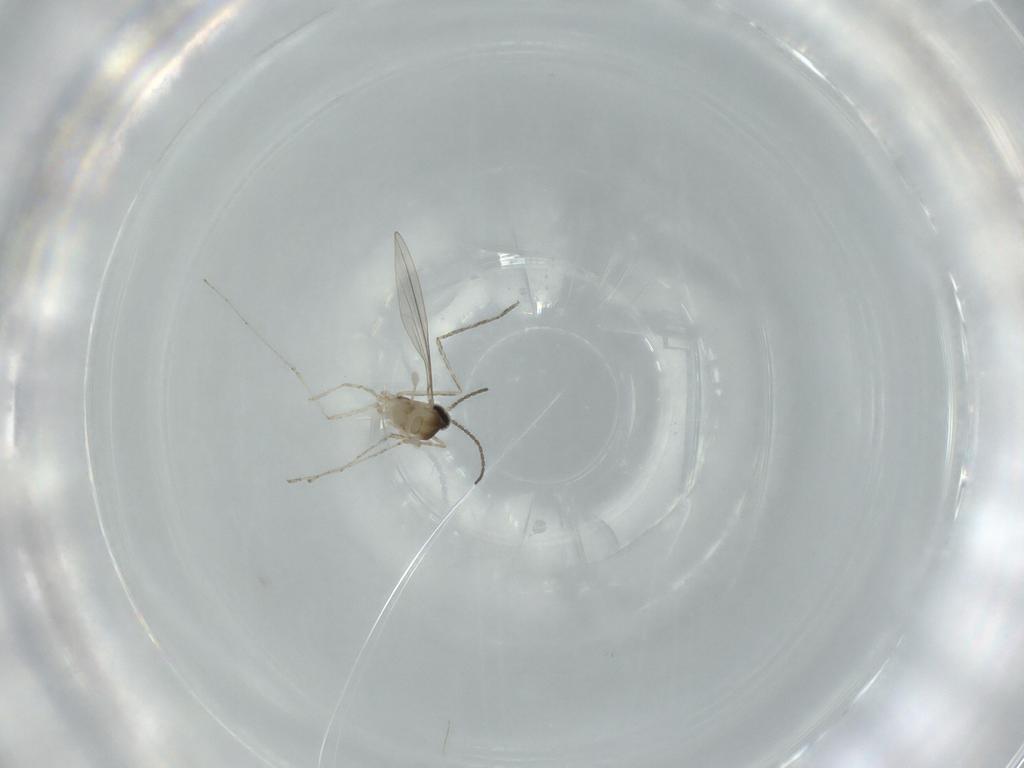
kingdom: Animalia
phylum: Arthropoda
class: Insecta
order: Diptera
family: Cecidomyiidae
